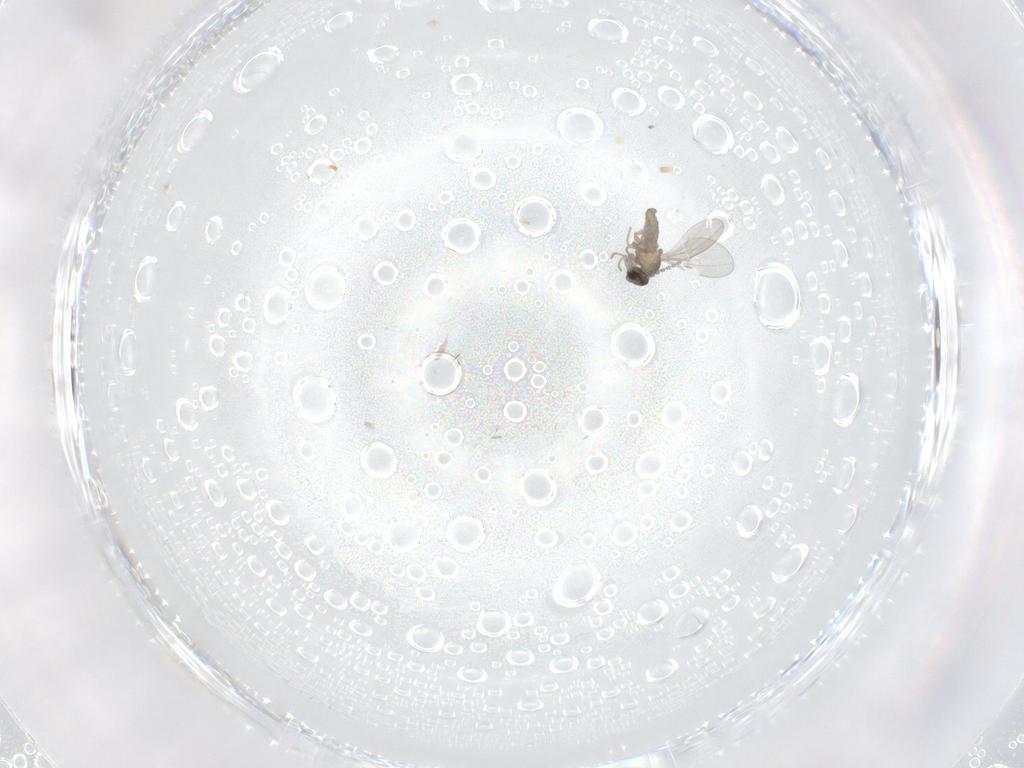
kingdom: Animalia
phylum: Arthropoda
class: Insecta
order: Diptera
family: Cecidomyiidae
